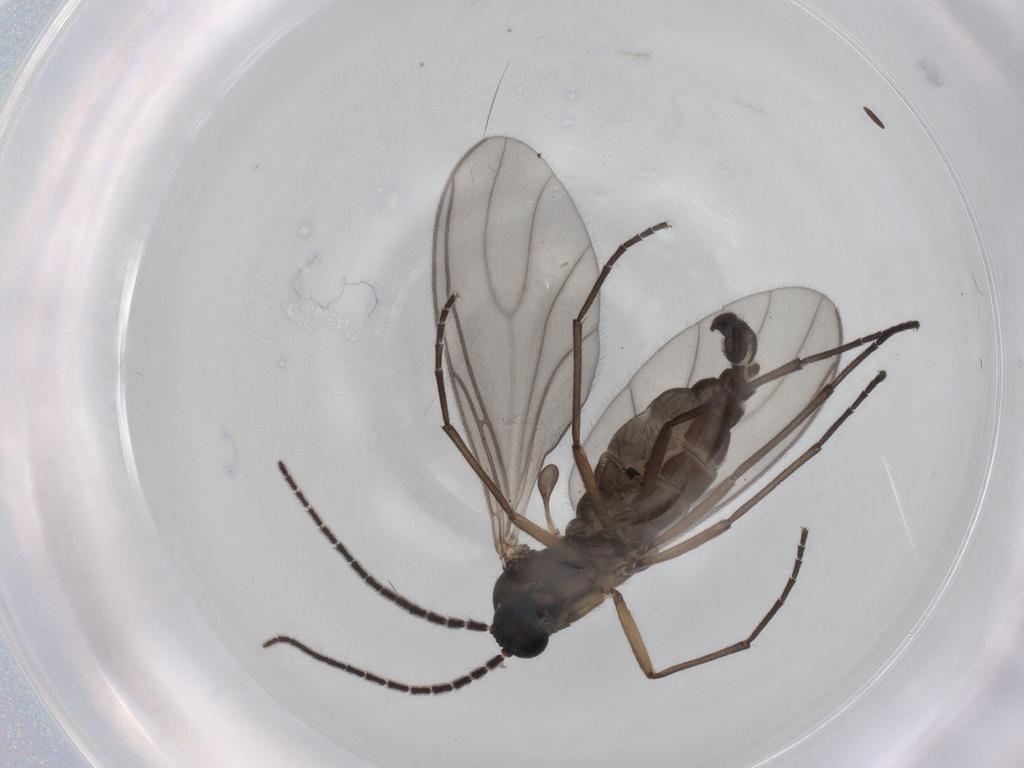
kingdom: Animalia
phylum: Arthropoda
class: Insecta
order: Diptera
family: Sciaridae
